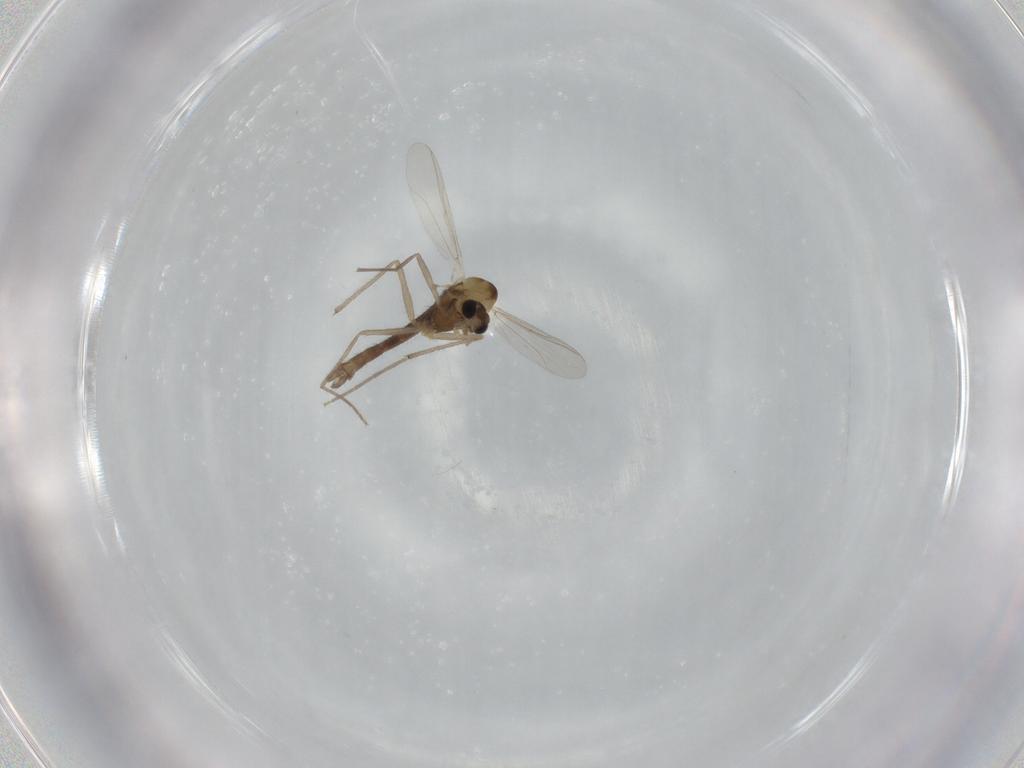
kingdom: Animalia
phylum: Arthropoda
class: Insecta
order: Diptera
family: Chironomidae
